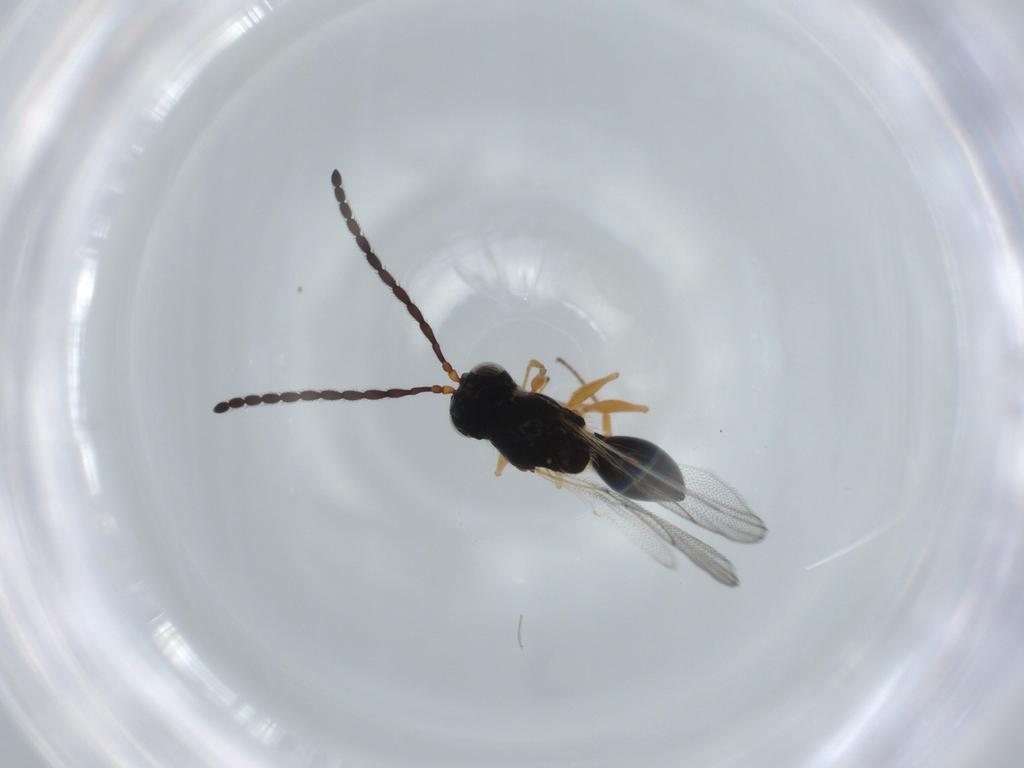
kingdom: Animalia
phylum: Arthropoda
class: Insecta
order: Hymenoptera
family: Figitidae
